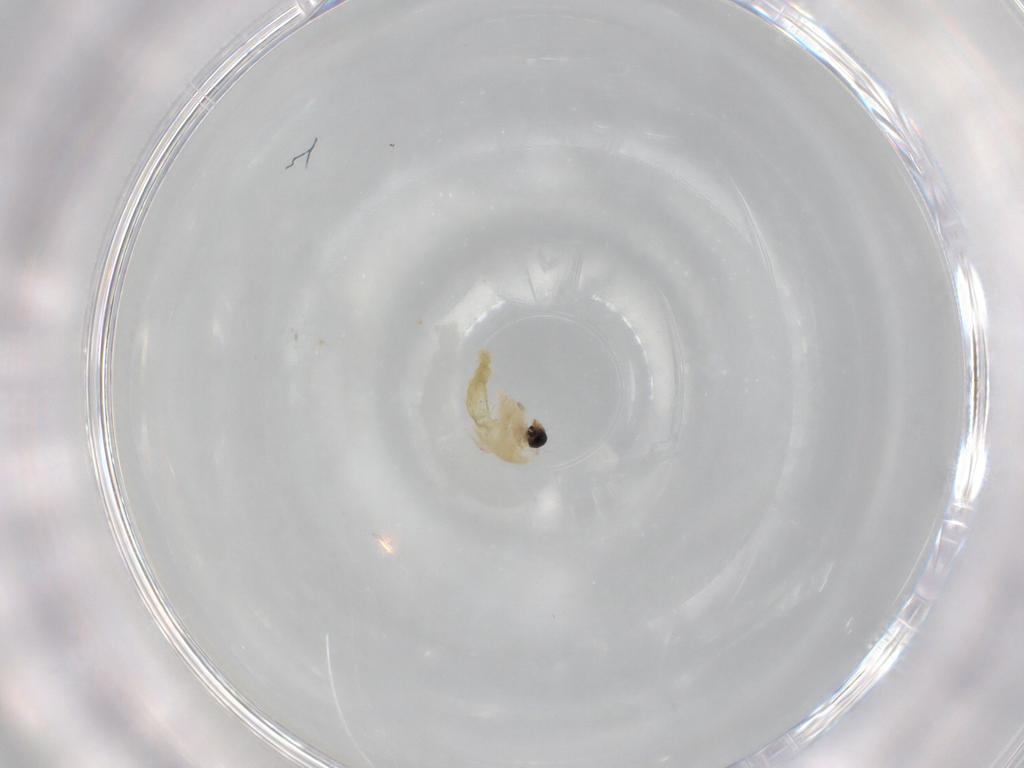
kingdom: Animalia
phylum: Arthropoda
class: Insecta
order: Diptera
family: Chironomidae
